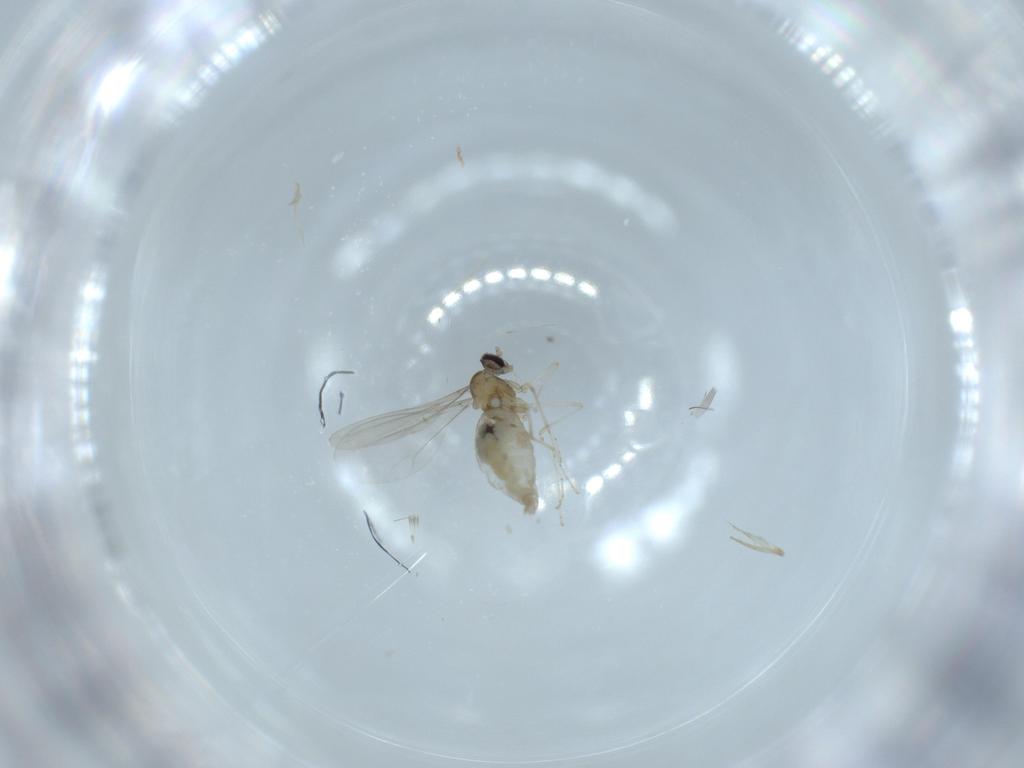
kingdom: Animalia
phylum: Arthropoda
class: Insecta
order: Diptera
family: Cecidomyiidae
